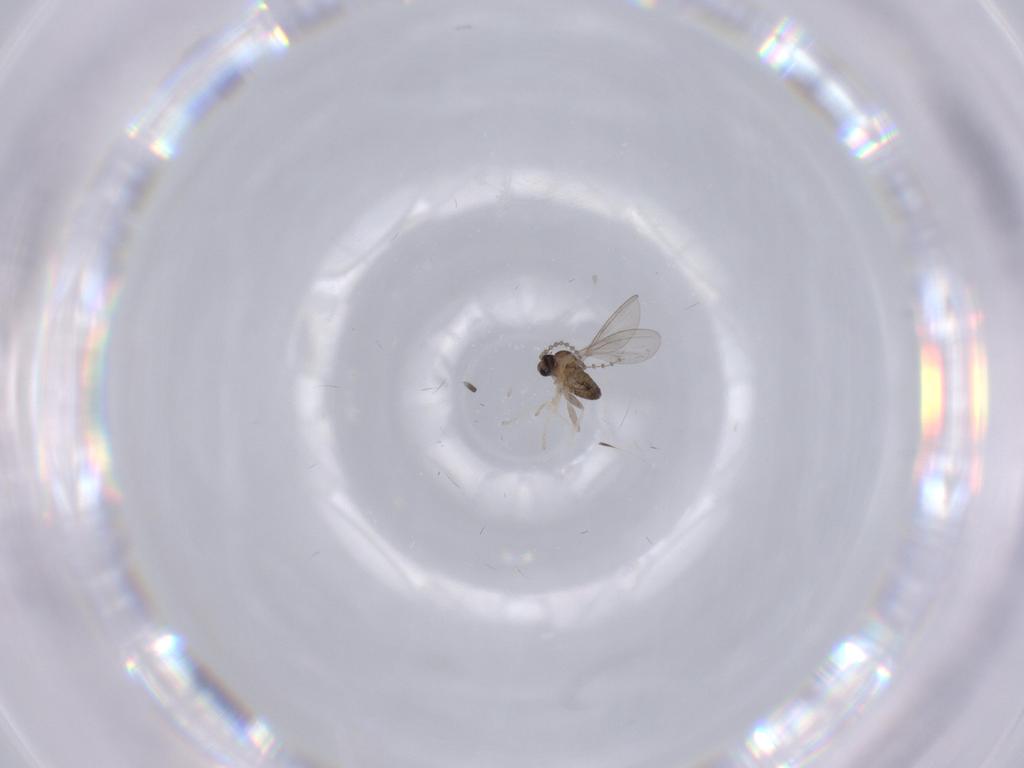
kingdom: Animalia
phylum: Arthropoda
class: Insecta
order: Diptera
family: Cecidomyiidae
